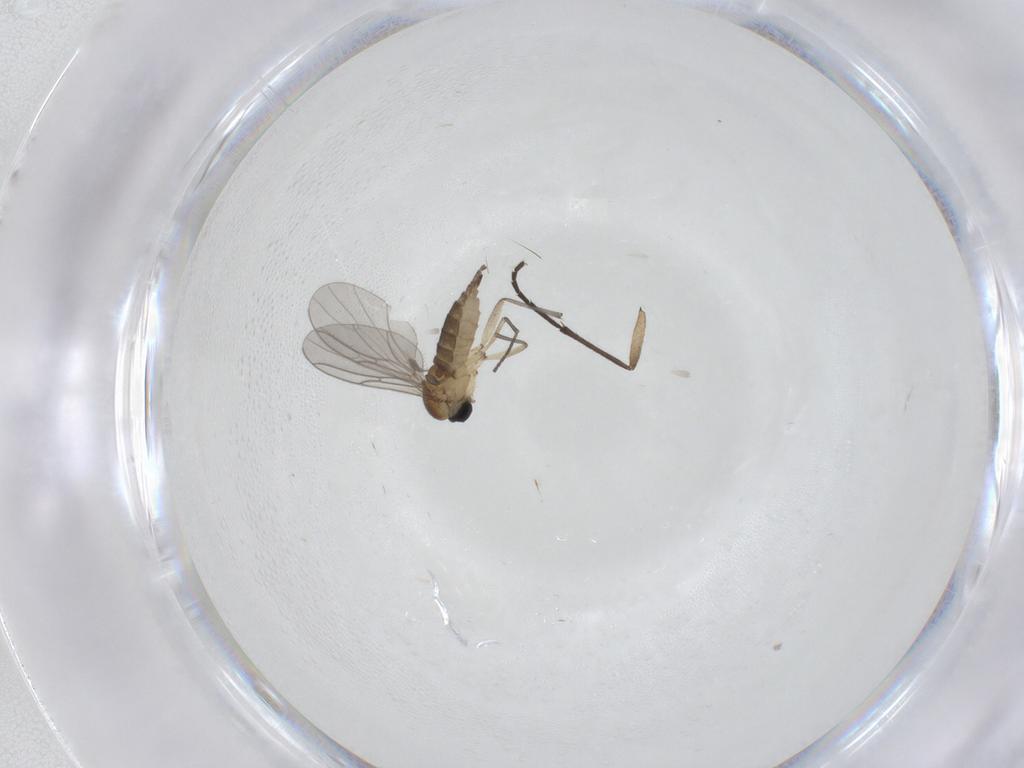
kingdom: Animalia
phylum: Arthropoda
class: Insecta
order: Diptera
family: Sciaridae
